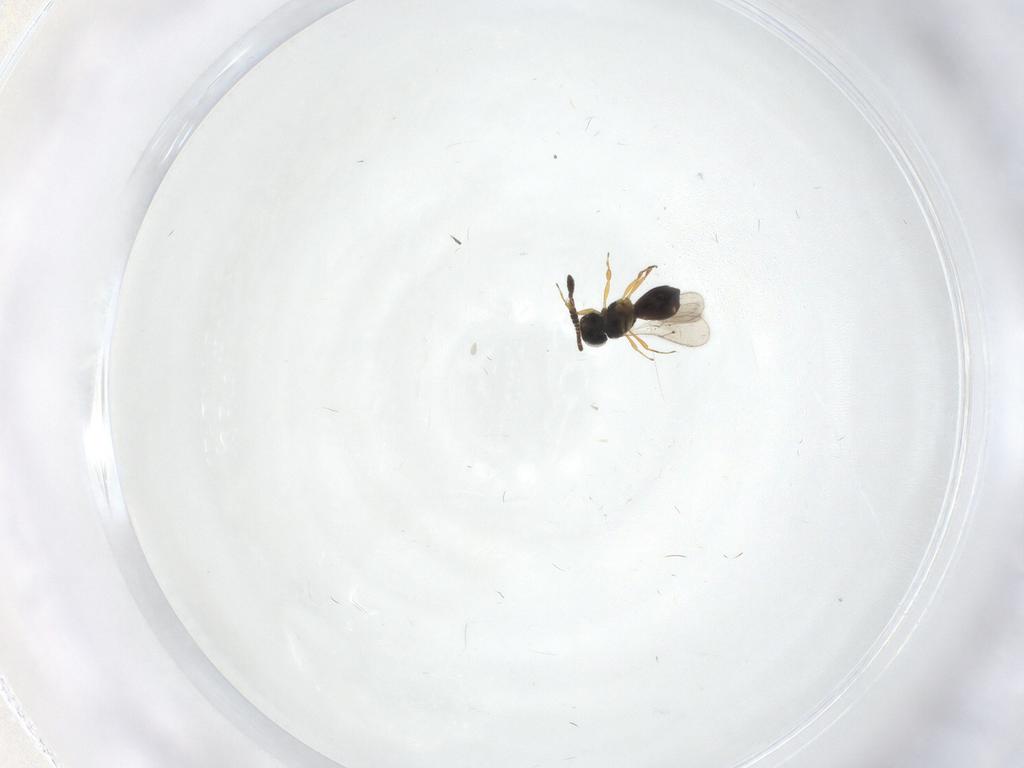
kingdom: Animalia
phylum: Arthropoda
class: Insecta
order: Hymenoptera
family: Scelionidae
